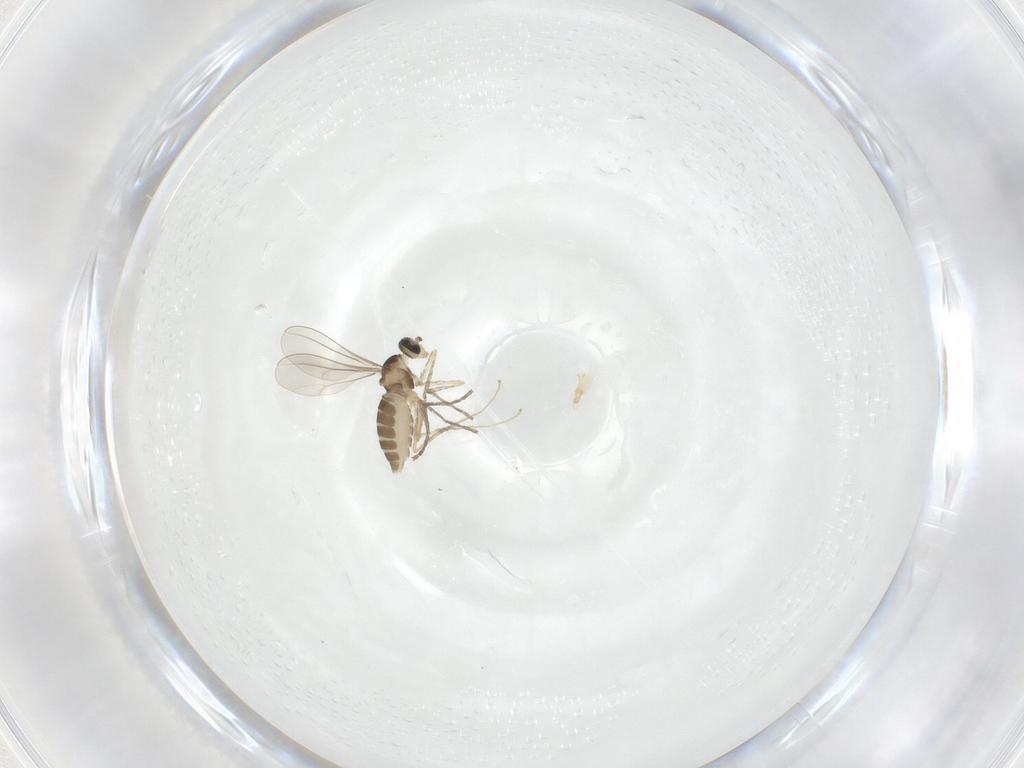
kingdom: Animalia
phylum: Arthropoda
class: Insecta
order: Diptera
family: Cecidomyiidae
